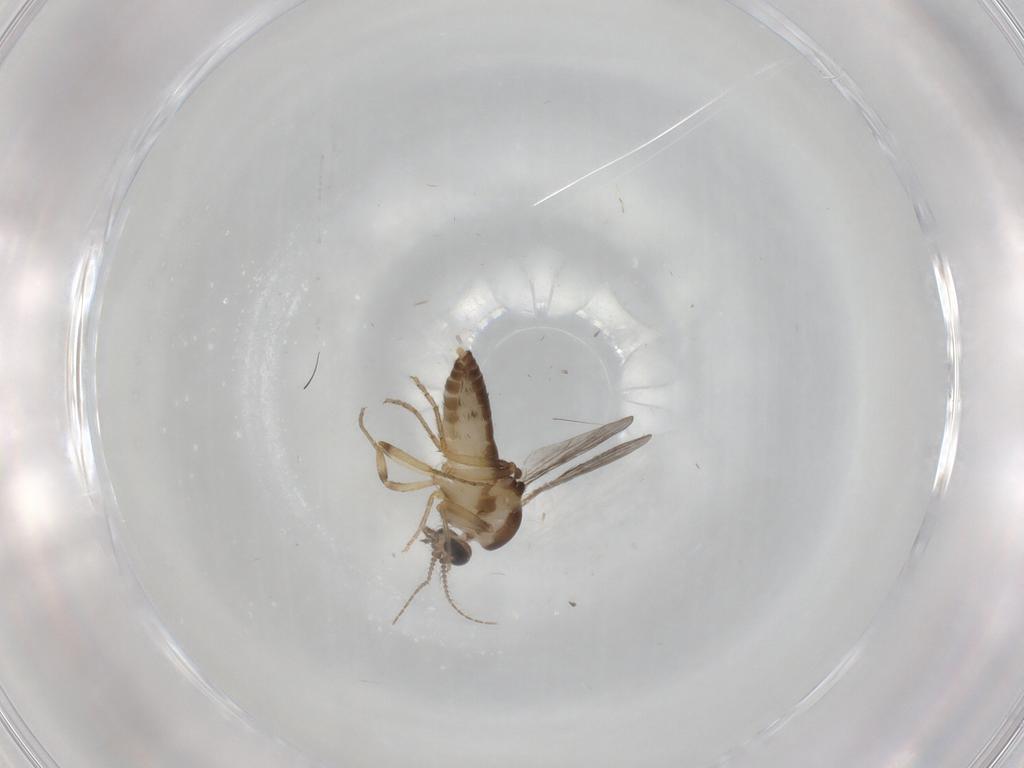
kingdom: Animalia
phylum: Arthropoda
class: Insecta
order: Diptera
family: Ceratopogonidae
